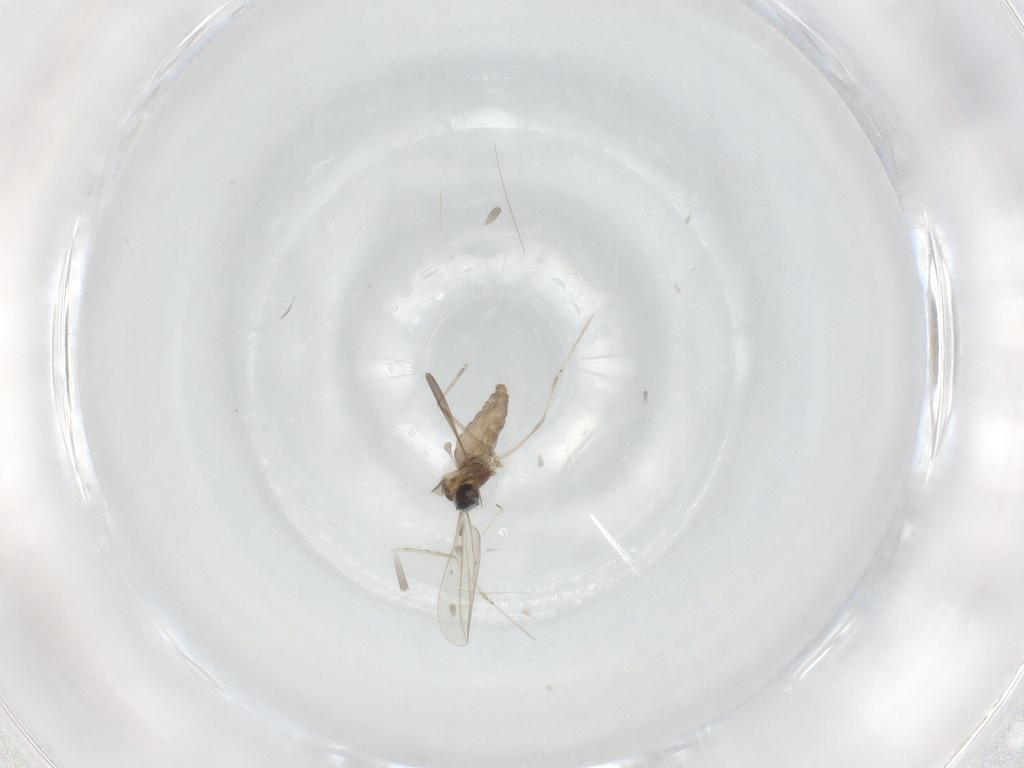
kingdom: Animalia
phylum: Arthropoda
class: Insecta
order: Diptera
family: Cecidomyiidae
